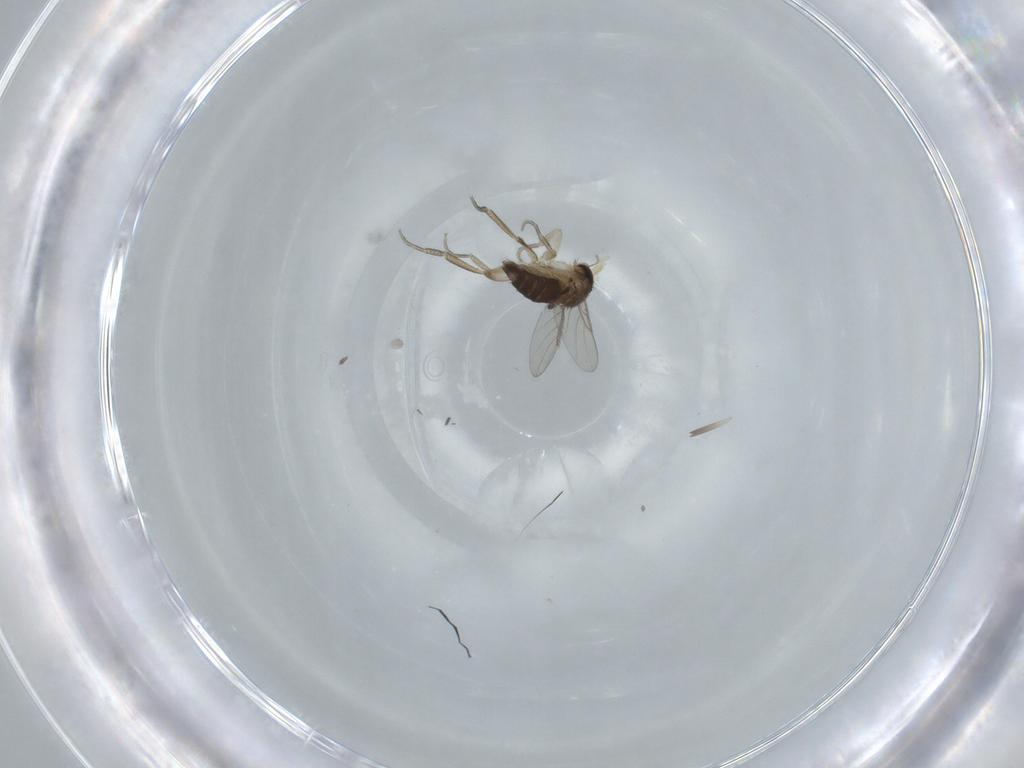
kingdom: Animalia
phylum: Arthropoda
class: Insecta
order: Diptera
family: Phoridae
